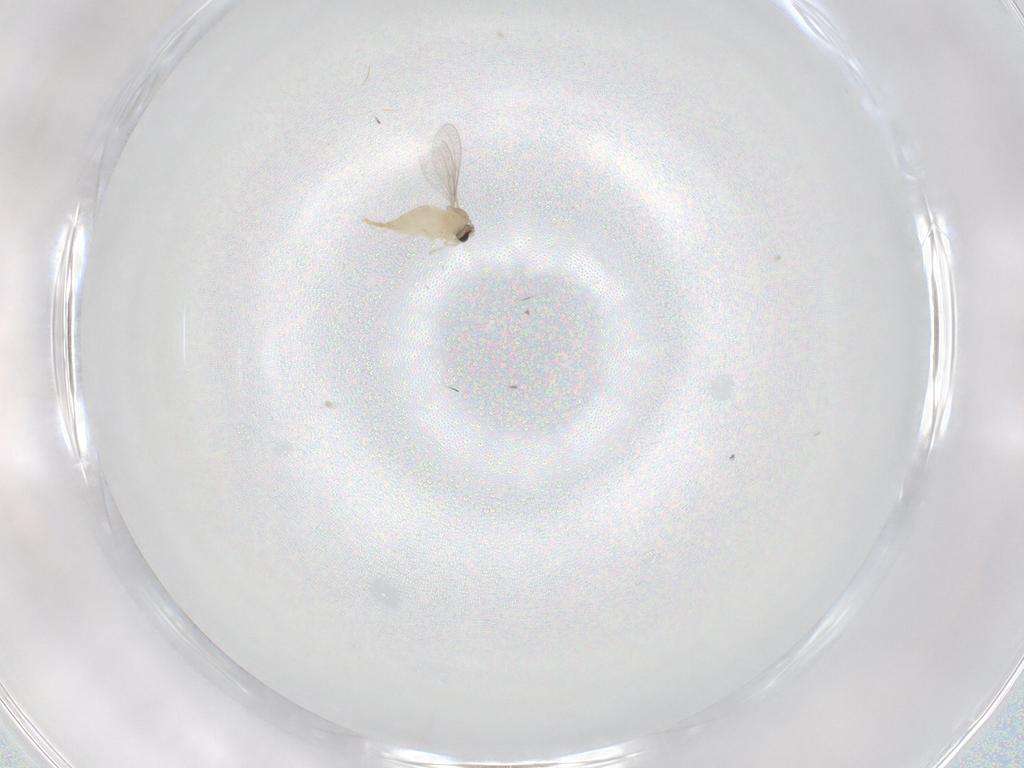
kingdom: Animalia
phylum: Arthropoda
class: Insecta
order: Diptera
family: Cecidomyiidae
